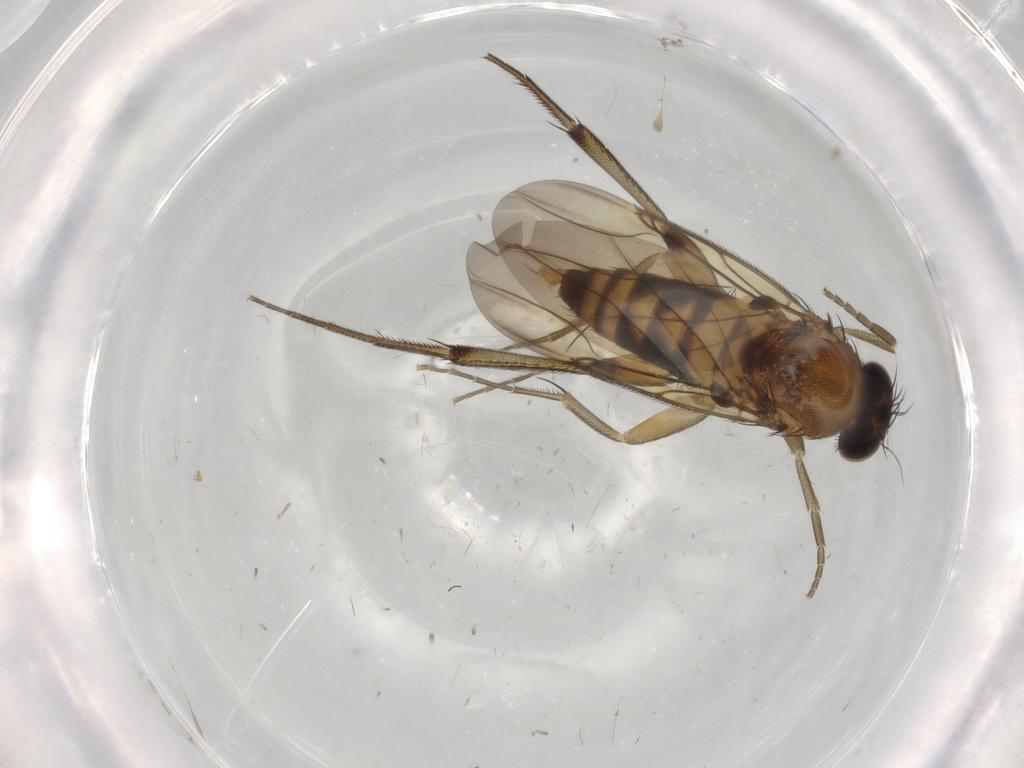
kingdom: Animalia
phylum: Arthropoda
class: Insecta
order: Diptera
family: Phoridae
